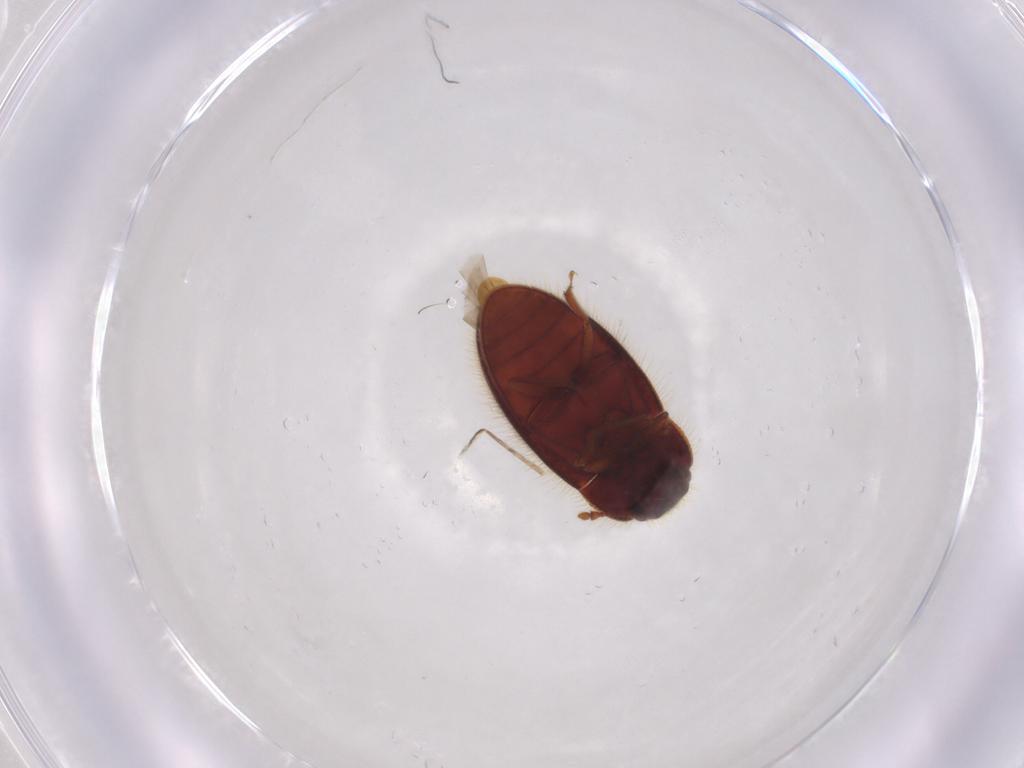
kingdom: Animalia
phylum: Arthropoda
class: Insecta
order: Coleoptera
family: Biphyllidae
